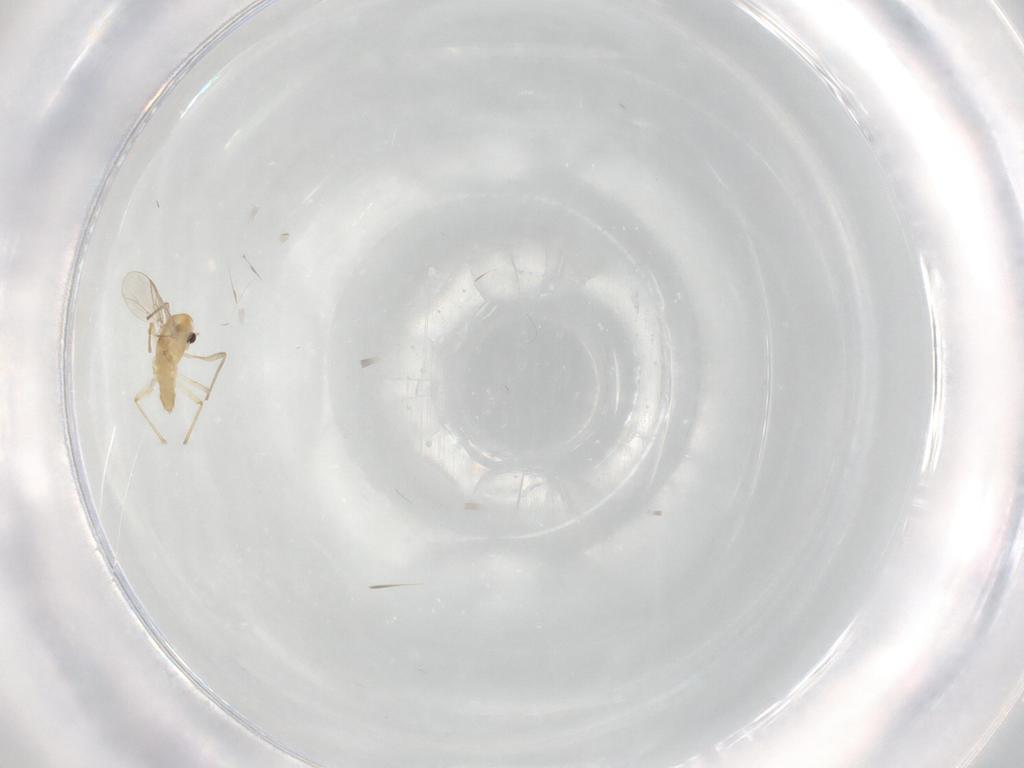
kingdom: Animalia
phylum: Arthropoda
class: Insecta
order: Diptera
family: Chironomidae
